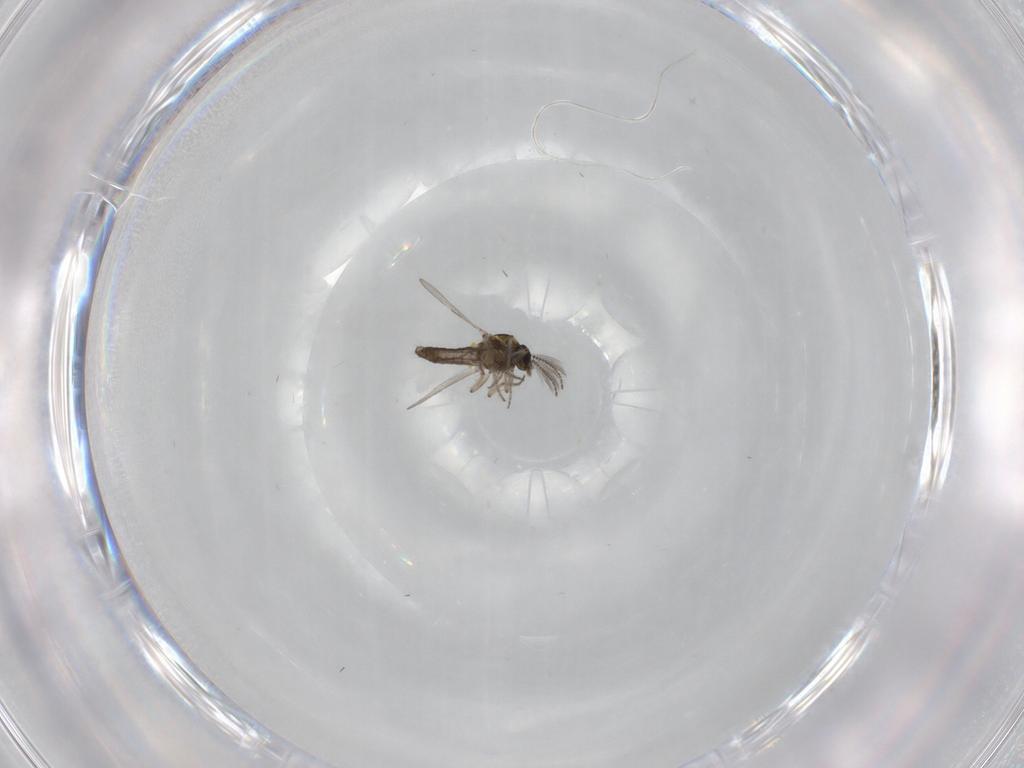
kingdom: Animalia
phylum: Arthropoda
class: Insecta
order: Diptera
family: Ceratopogonidae
